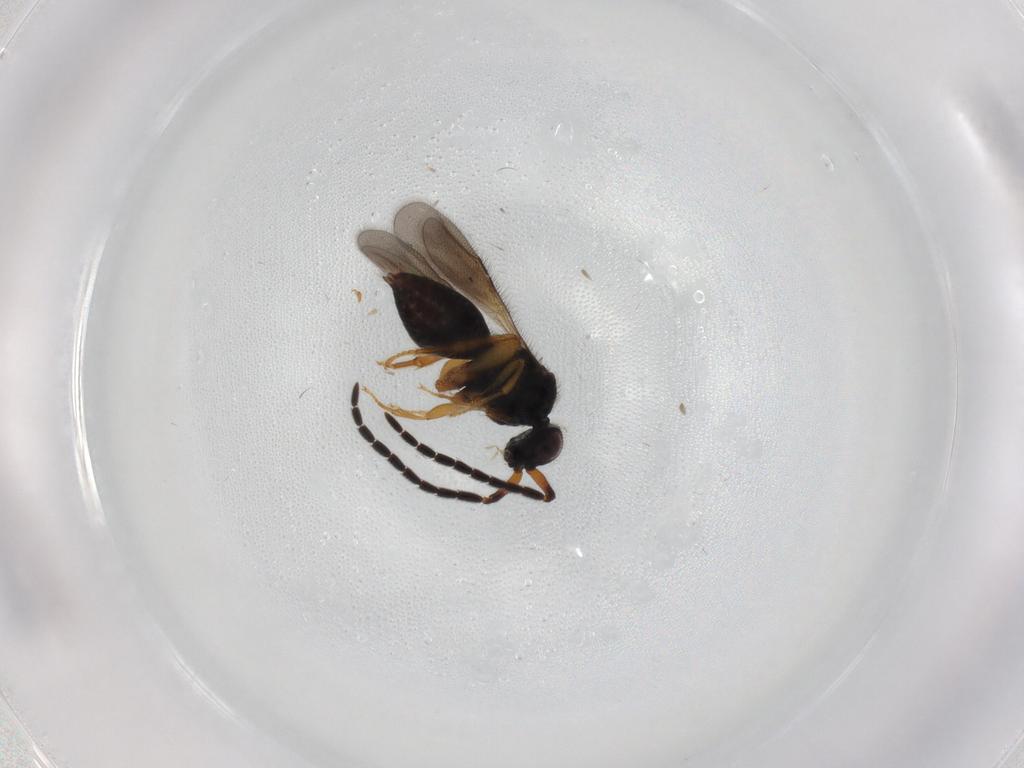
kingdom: Animalia
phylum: Arthropoda
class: Insecta
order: Hymenoptera
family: Ceraphronidae
